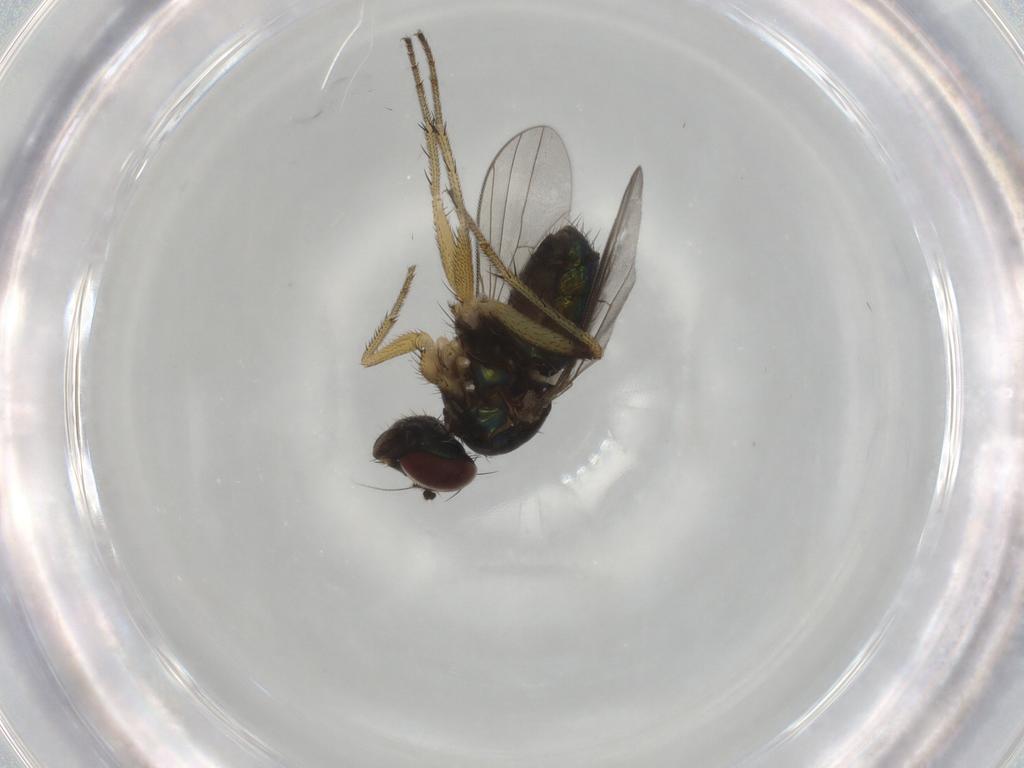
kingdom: Animalia
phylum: Arthropoda
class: Insecta
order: Diptera
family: Dolichopodidae
